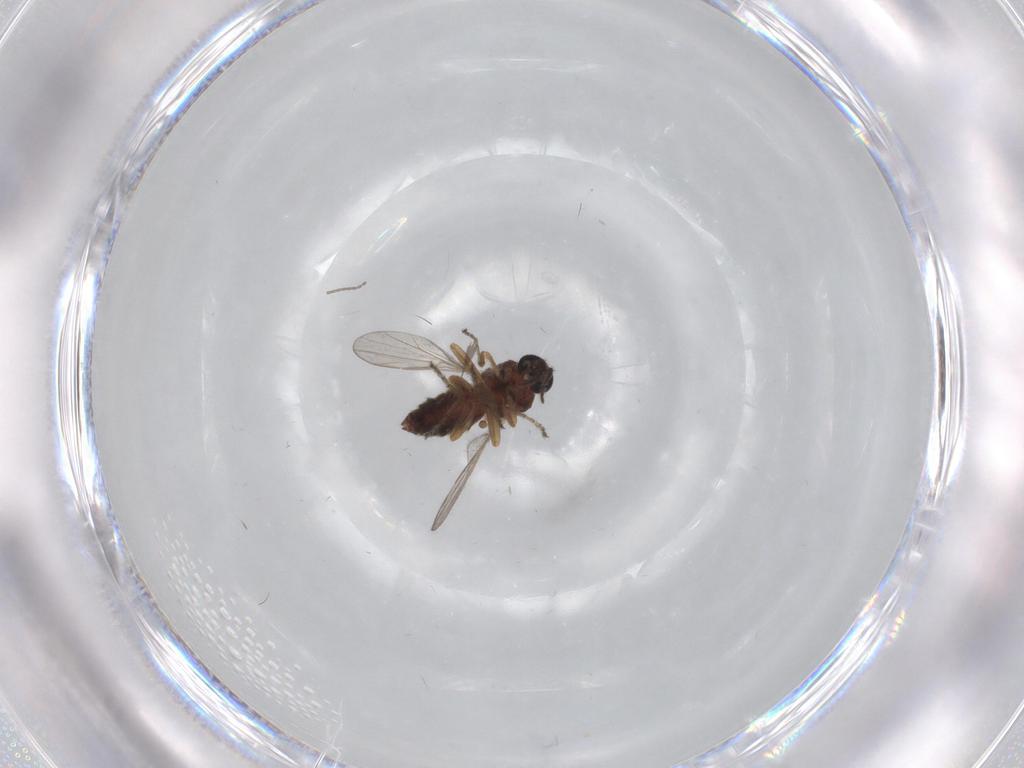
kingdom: Animalia
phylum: Arthropoda
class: Insecta
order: Diptera
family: Ceratopogonidae
